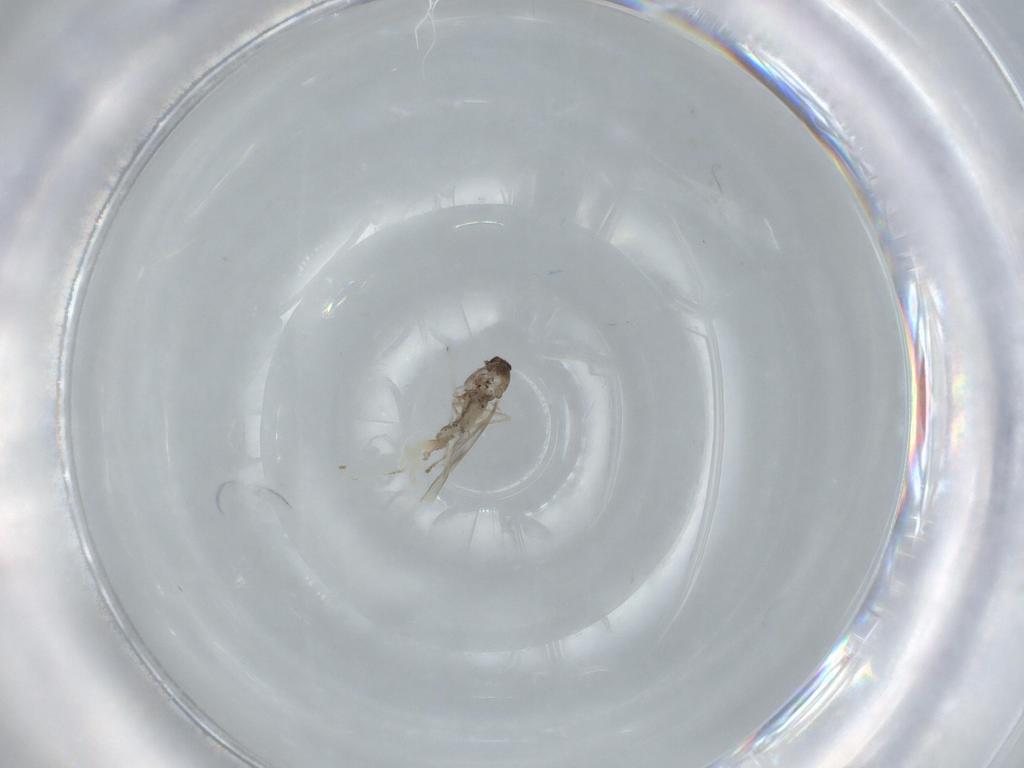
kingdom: Animalia
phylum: Arthropoda
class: Insecta
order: Diptera
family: Cecidomyiidae
